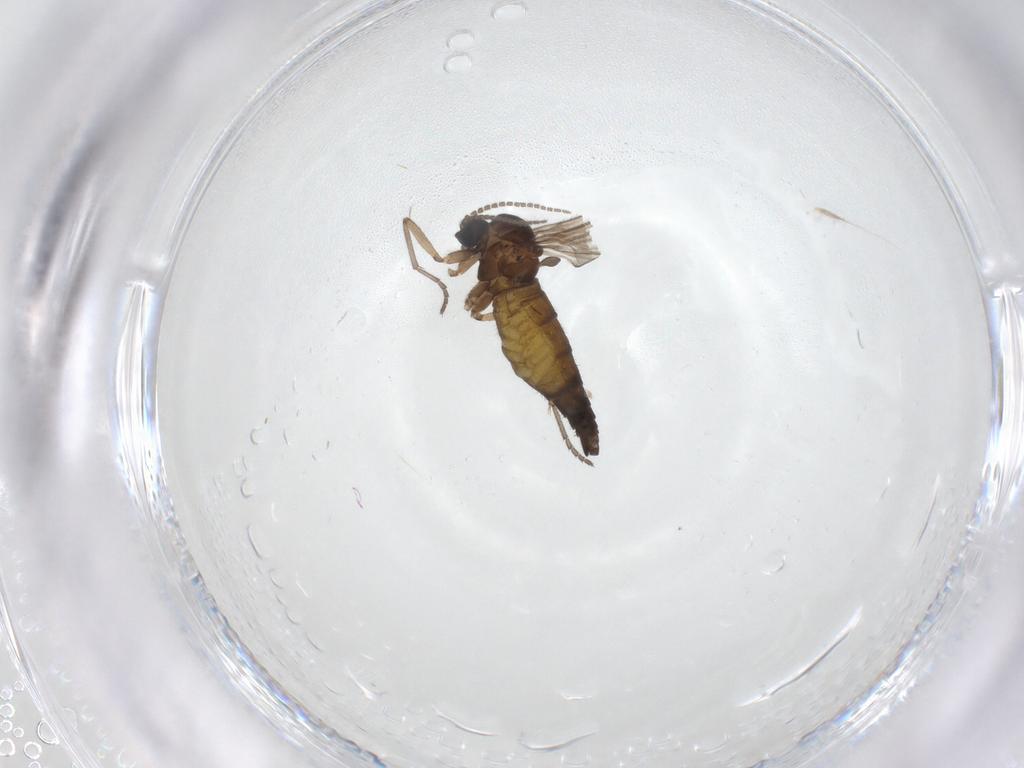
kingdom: Animalia
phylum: Arthropoda
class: Insecta
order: Diptera
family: Sciaridae
